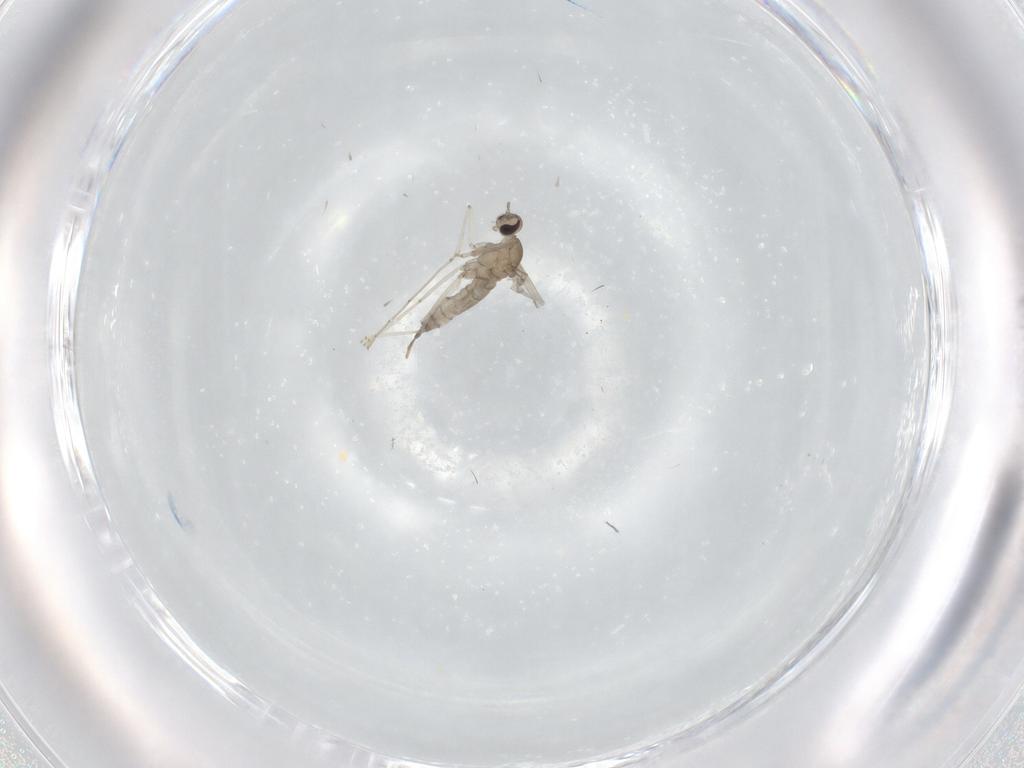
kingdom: Animalia
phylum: Arthropoda
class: Insecta
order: Diptera
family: Cecidomyiidae
